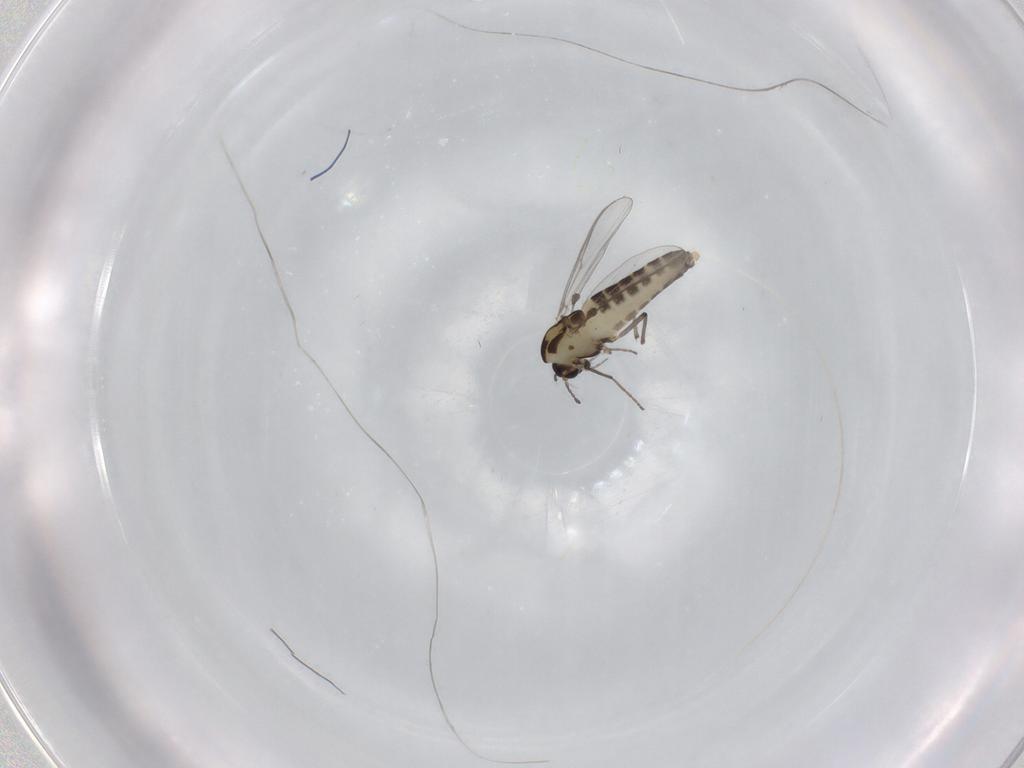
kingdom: Animalia
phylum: Arthropoda
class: Insecta
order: Diptera
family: Chironomidae
